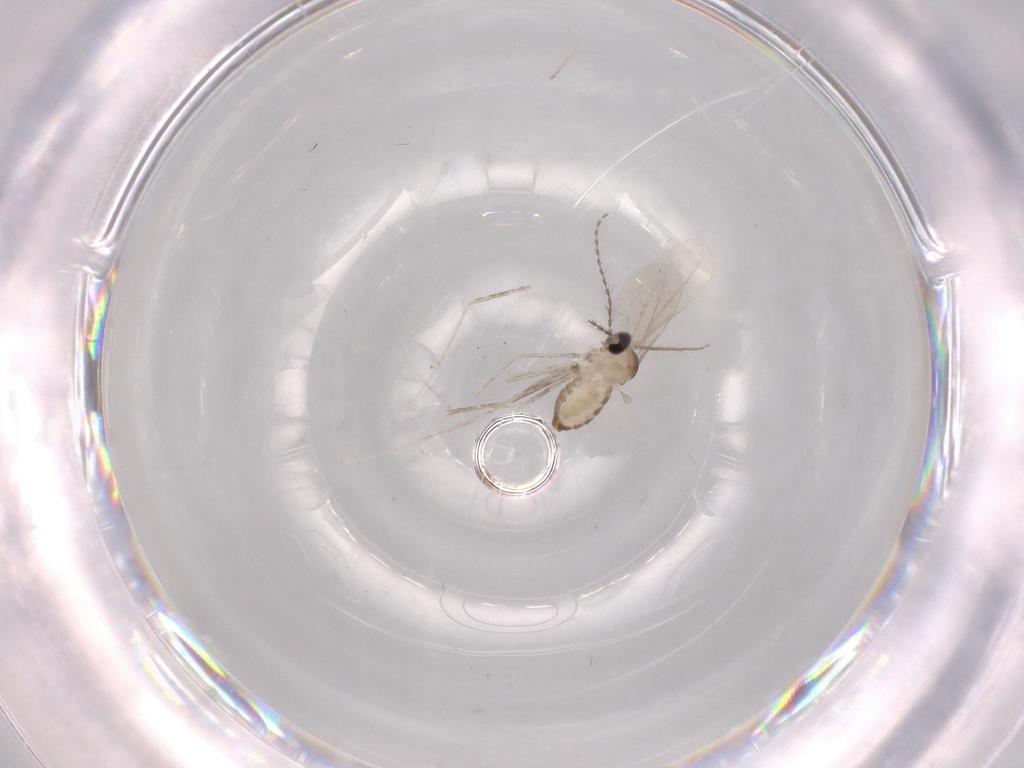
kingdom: Animalia
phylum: Arthropoda
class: Insecta
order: Diptera
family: Cecidomyiidae
